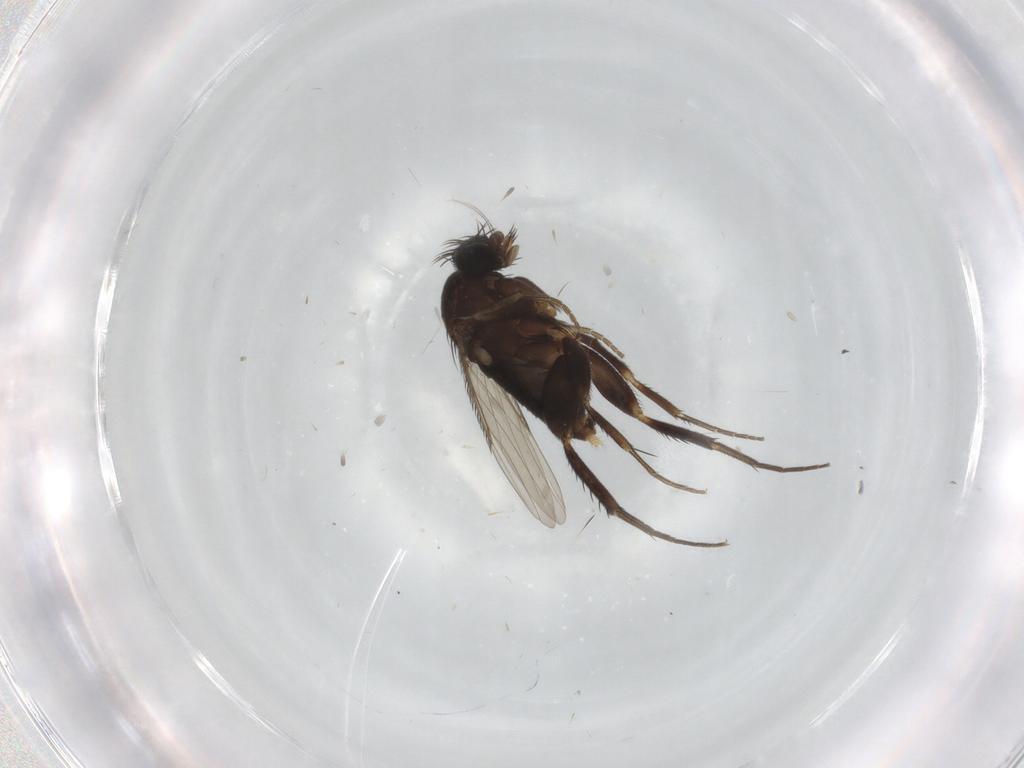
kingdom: Animalia
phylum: Arthropoda
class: Insecta
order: Diptera
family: Phoridae
